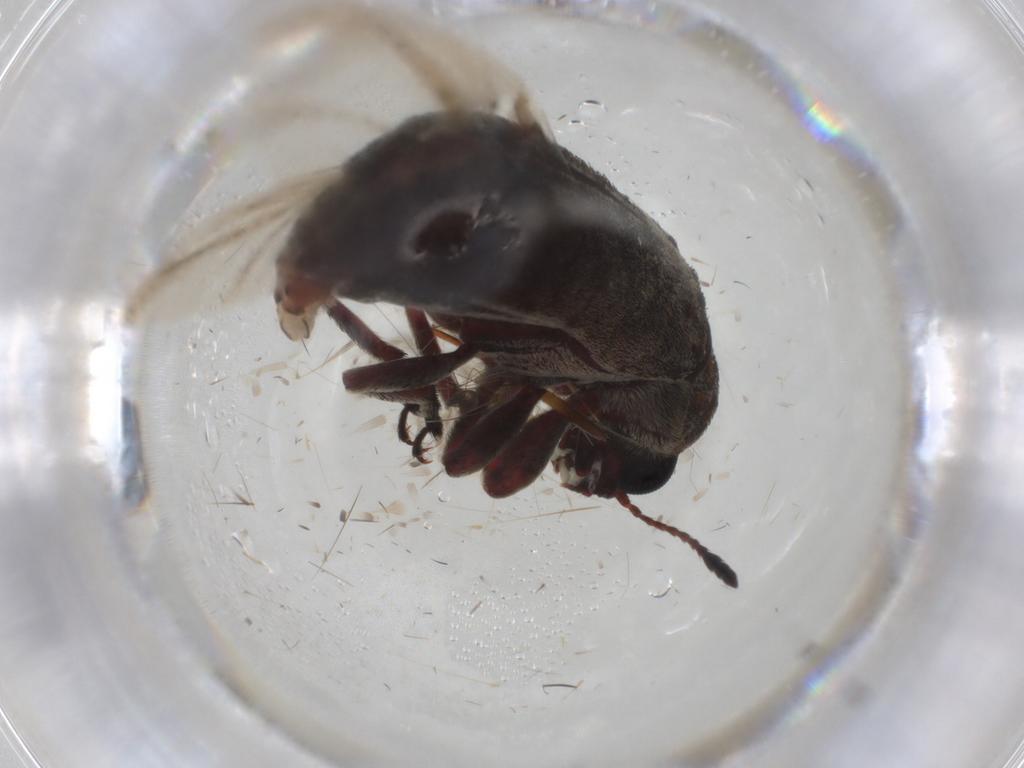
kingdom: Animalia
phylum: Arthropoda
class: Insecta
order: Coleoptera
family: Anthribidae
